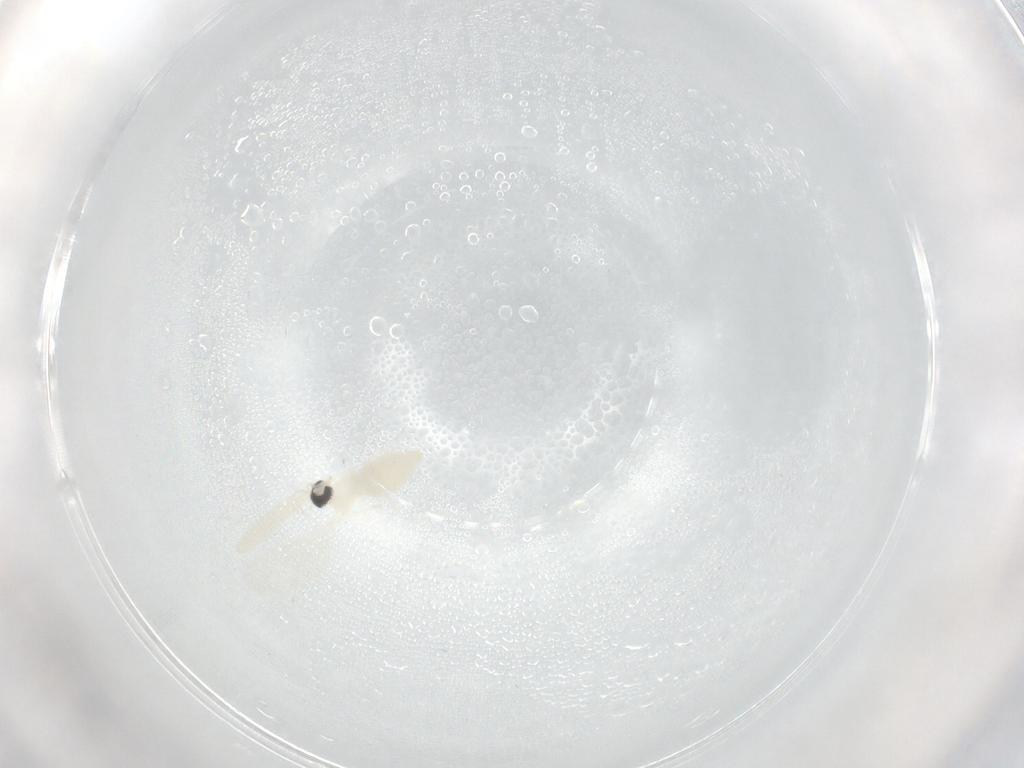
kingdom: Animalia
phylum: Arthropoda
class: Insecta
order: Diptera
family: Cecidomyiidae
